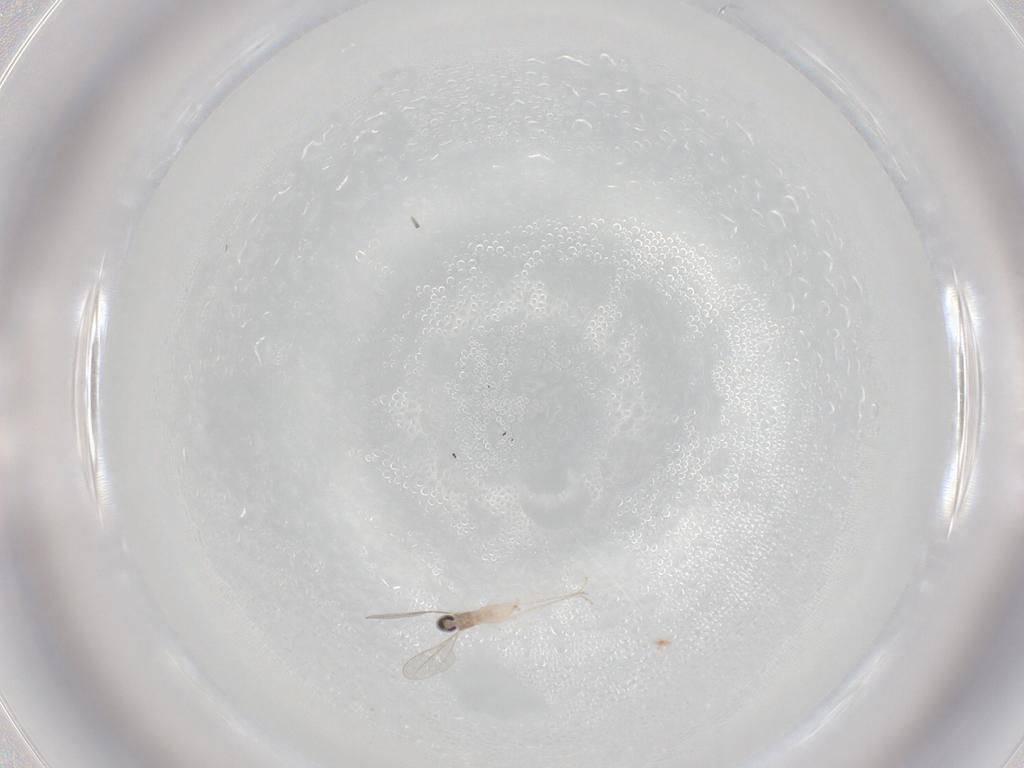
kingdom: Animalia
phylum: Arthropoda
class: Insecta
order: Diptera
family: Cecidomyiidae
